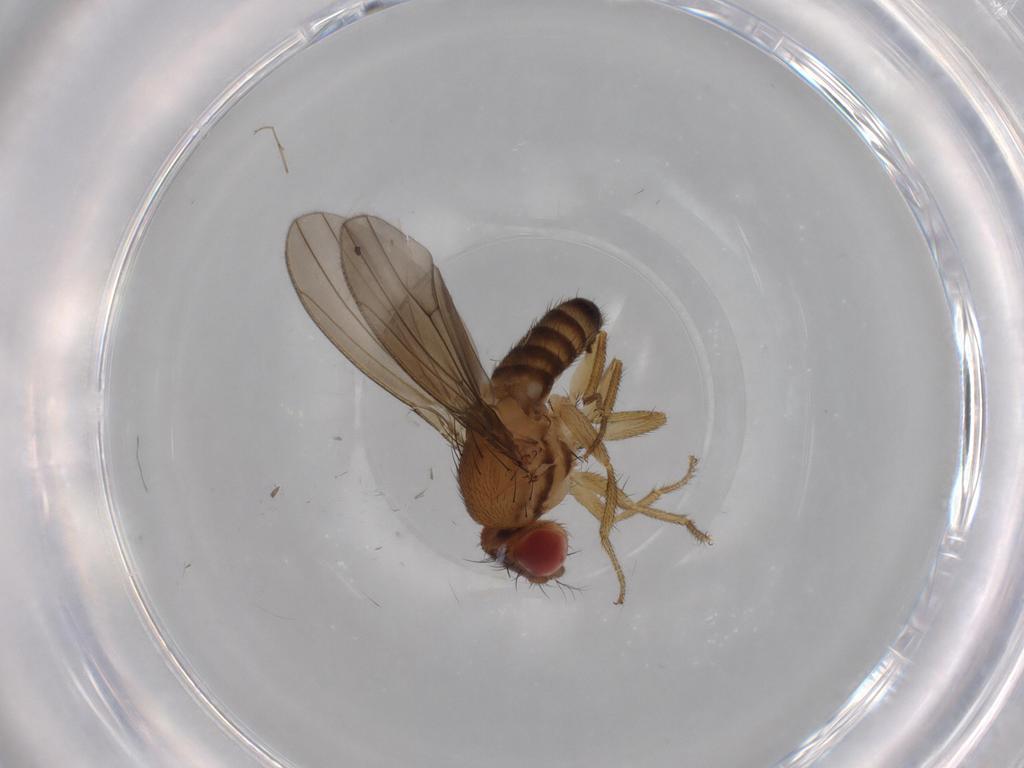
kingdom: Animalia
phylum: Arthropoda
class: Insecta
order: Diptera
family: Drosophilidae
